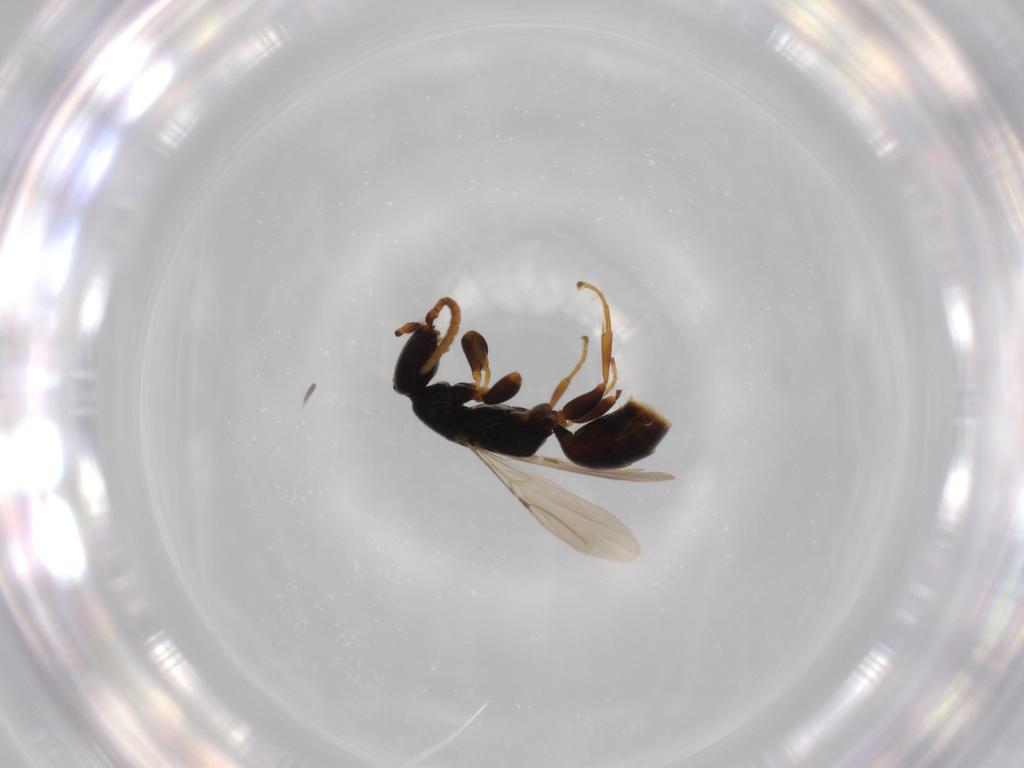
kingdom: Animalia
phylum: Arthropoda
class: Insecta
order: Hymenoptera
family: Bethylidae
